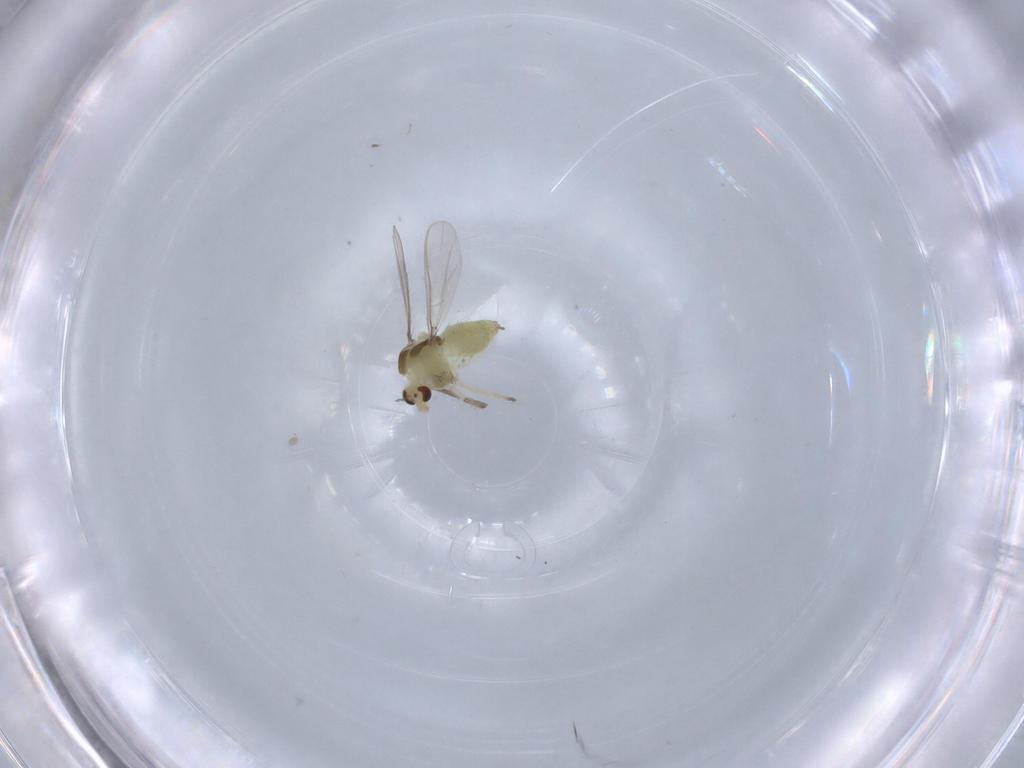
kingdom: Animalia
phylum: Arthropoda
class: Insecta
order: Diptera
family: Chironomidae
